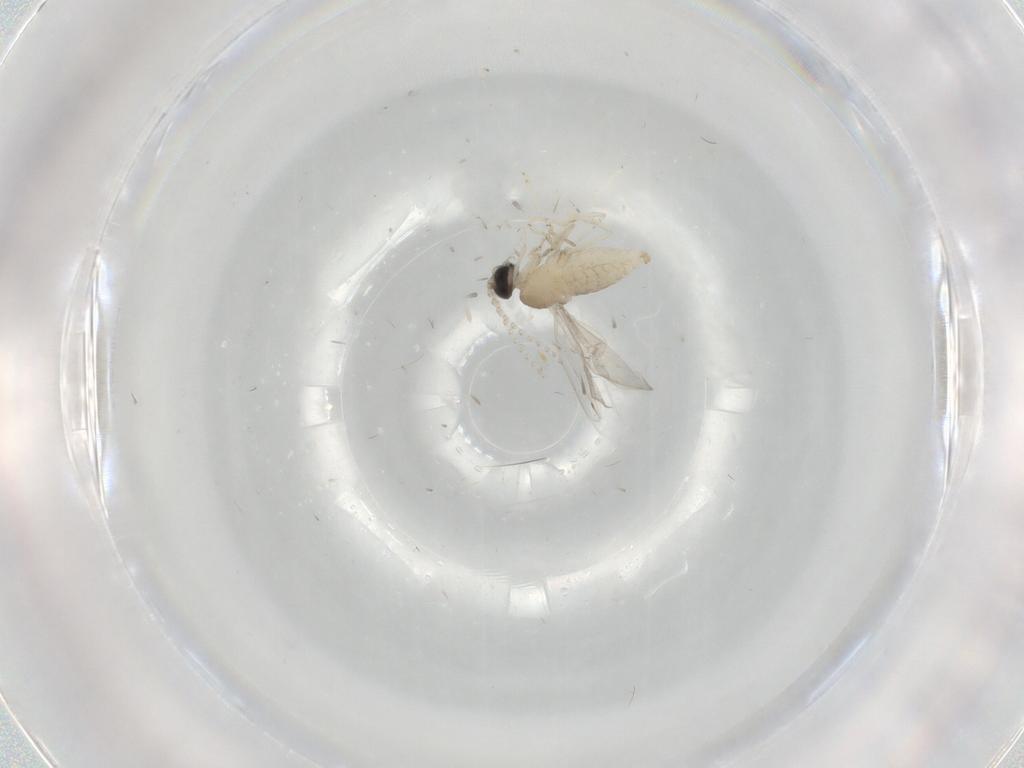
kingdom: Animalia
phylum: Arthropoda
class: Insecta
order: Diptera
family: Cecidomyiidae
